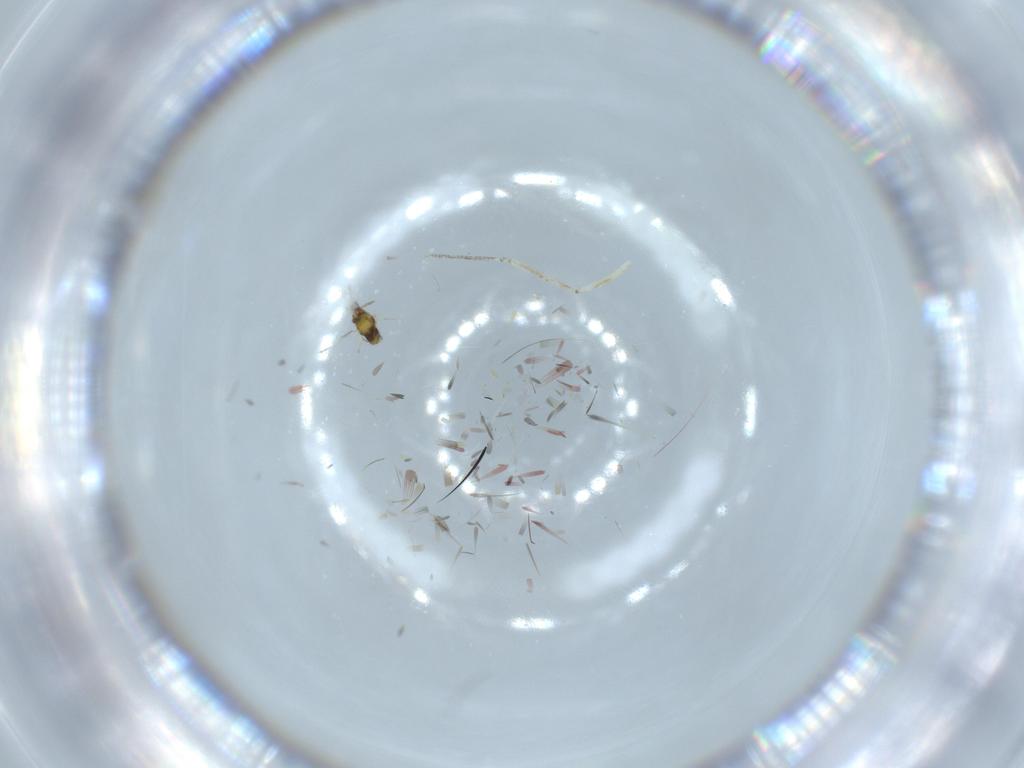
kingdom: Animalia
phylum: Arthropoda
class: Insecta
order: Diptera
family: Cecidomyiidae
